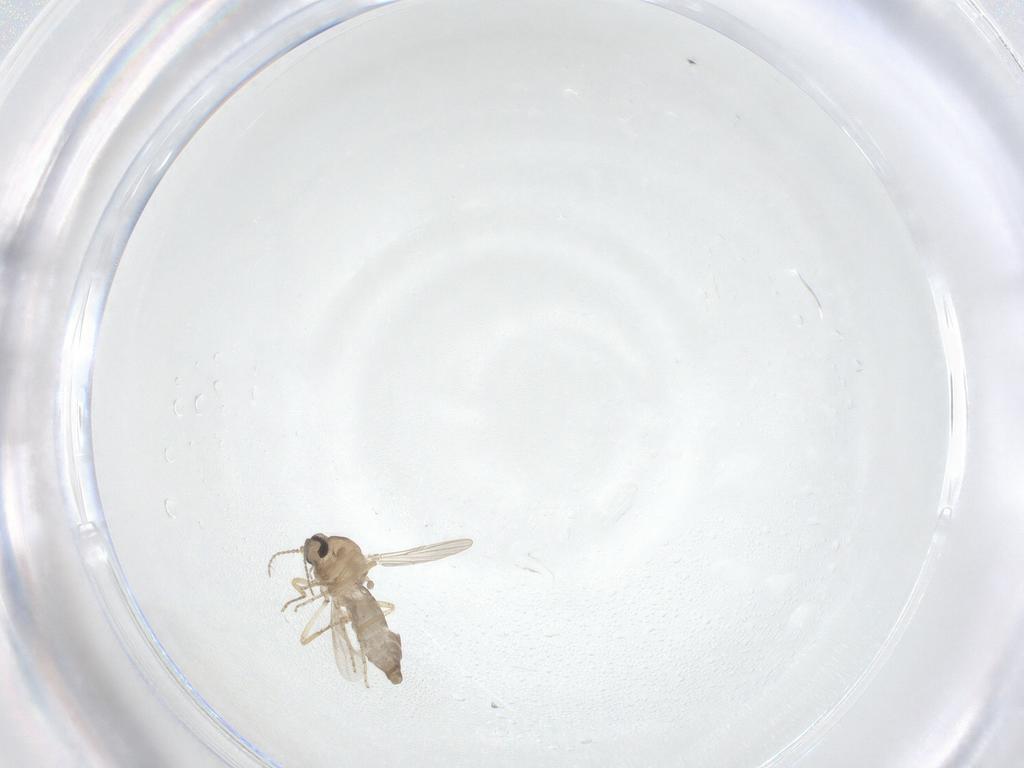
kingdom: Animalia
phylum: Arthropoda
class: Insecta
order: Diptera
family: Ceratopogonidae
